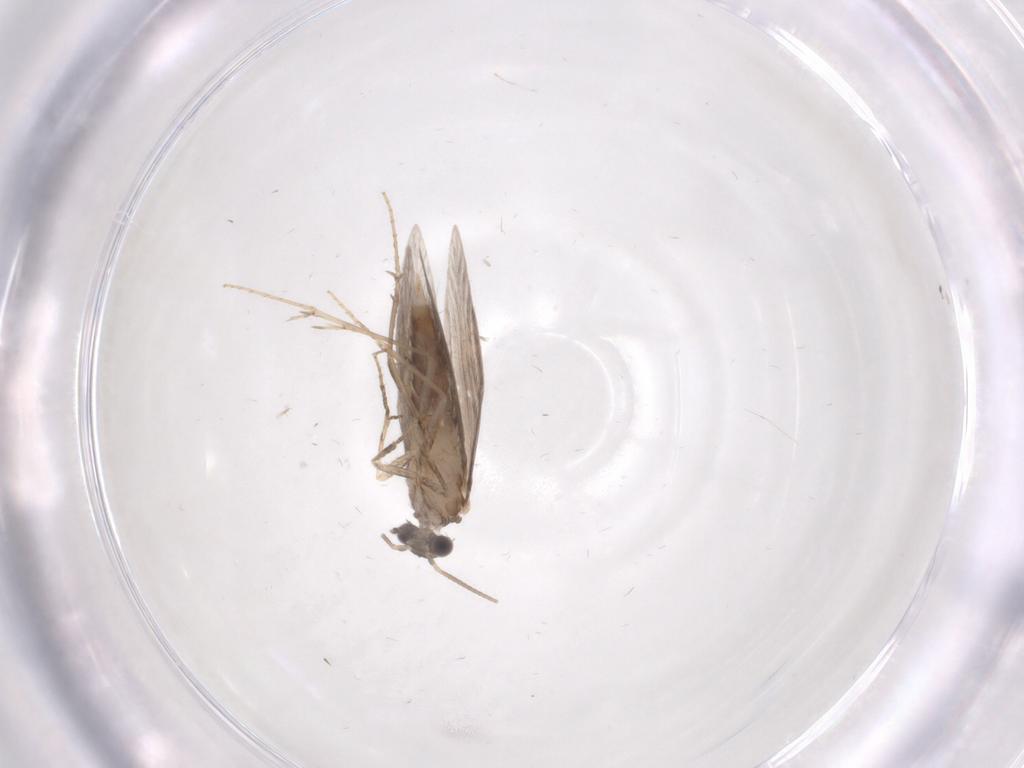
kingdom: Animalia
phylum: Arthropoda
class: Insecta
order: Trichoptera
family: Hydroptilidae
